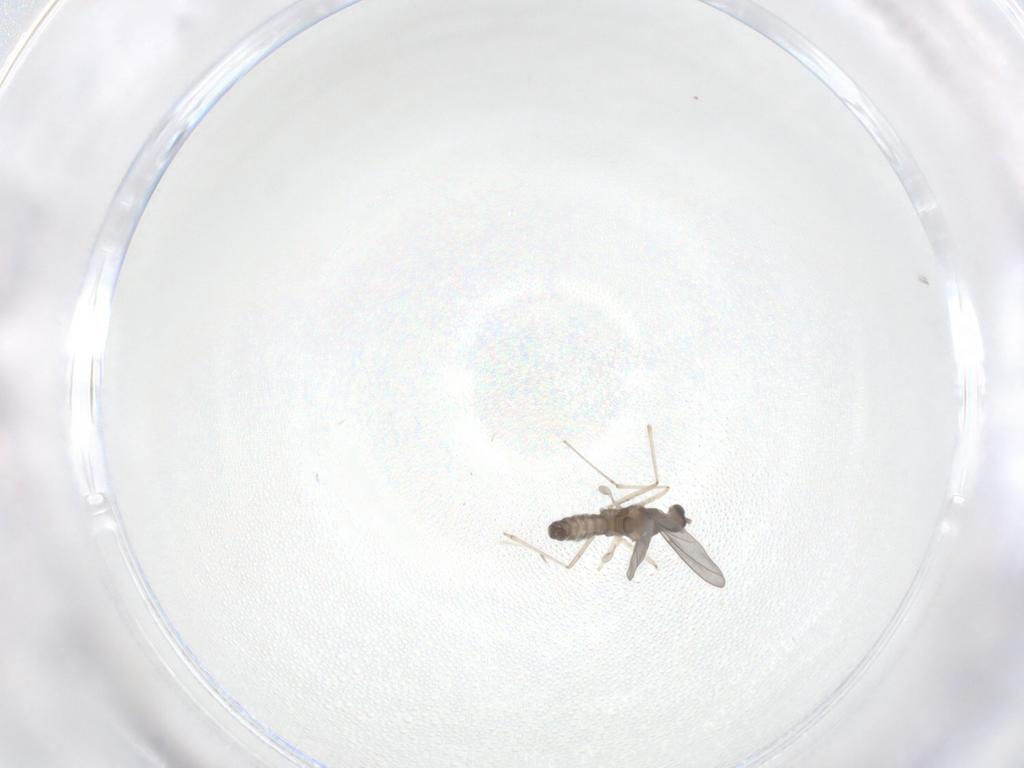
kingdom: Animalia
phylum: Arthropoda
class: Insecta
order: Diptera
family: Cecidomyiidae
